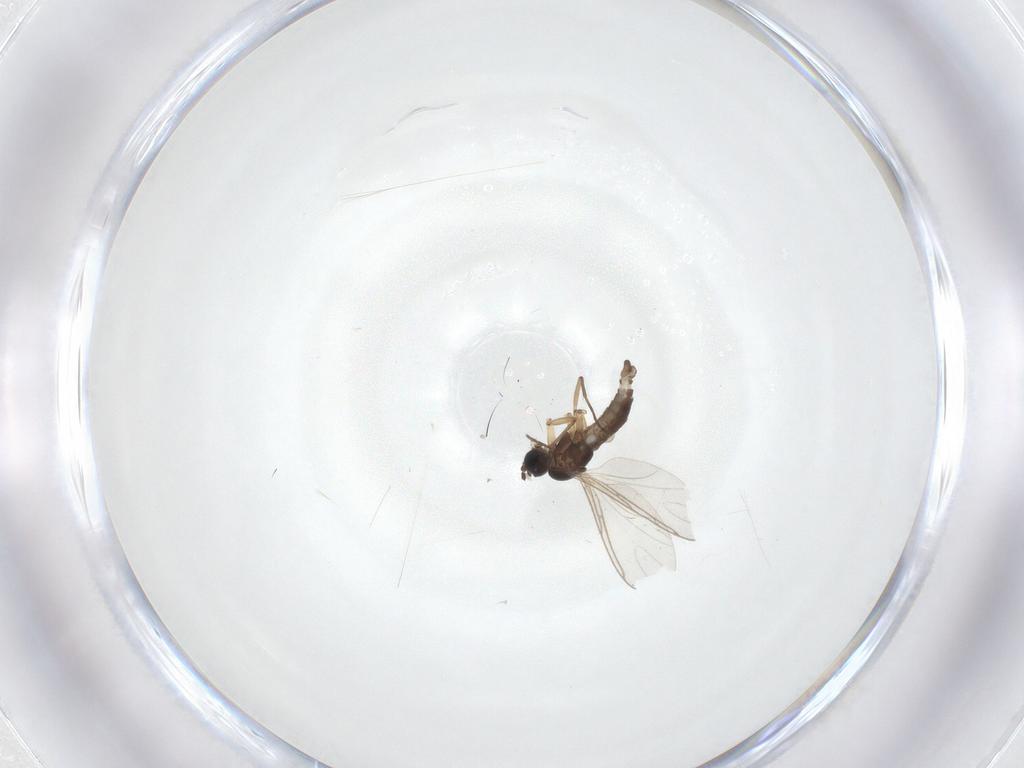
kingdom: Animalia
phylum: Arthropoda
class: Insecta
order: Diptera
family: Sciaridae
